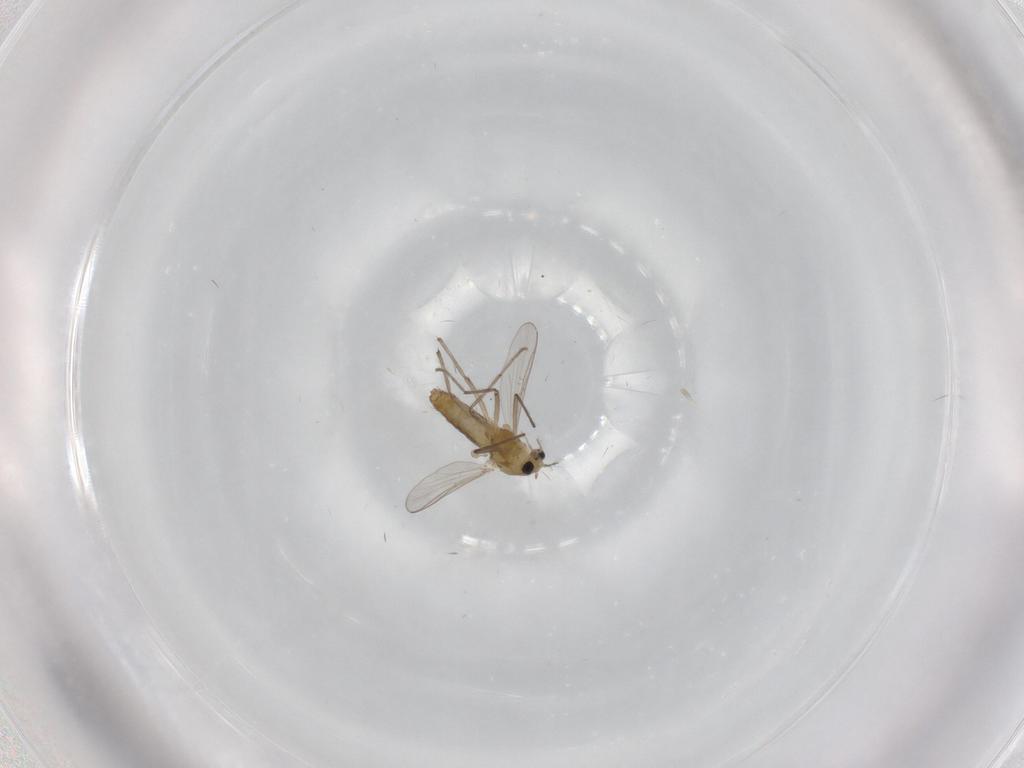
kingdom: Animalia
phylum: Arthropoda
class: Insecta
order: Diptera
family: Chironomidae
